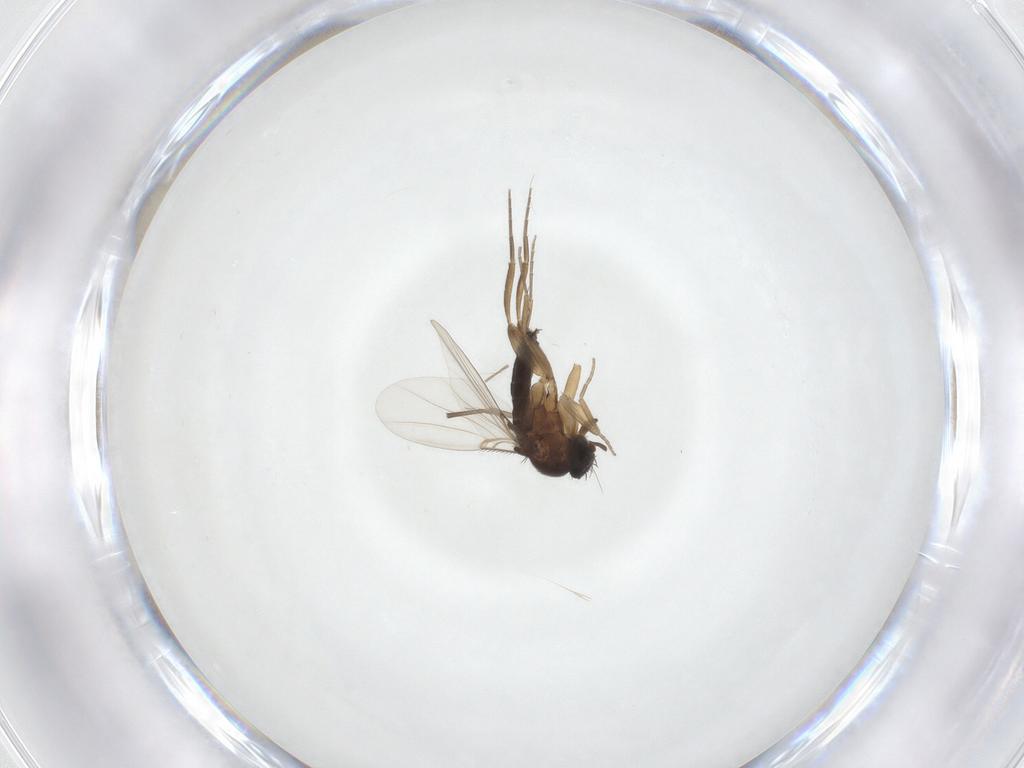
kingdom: Animalia
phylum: Arthropoda
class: Insecta
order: Diptera
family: Phoridae
